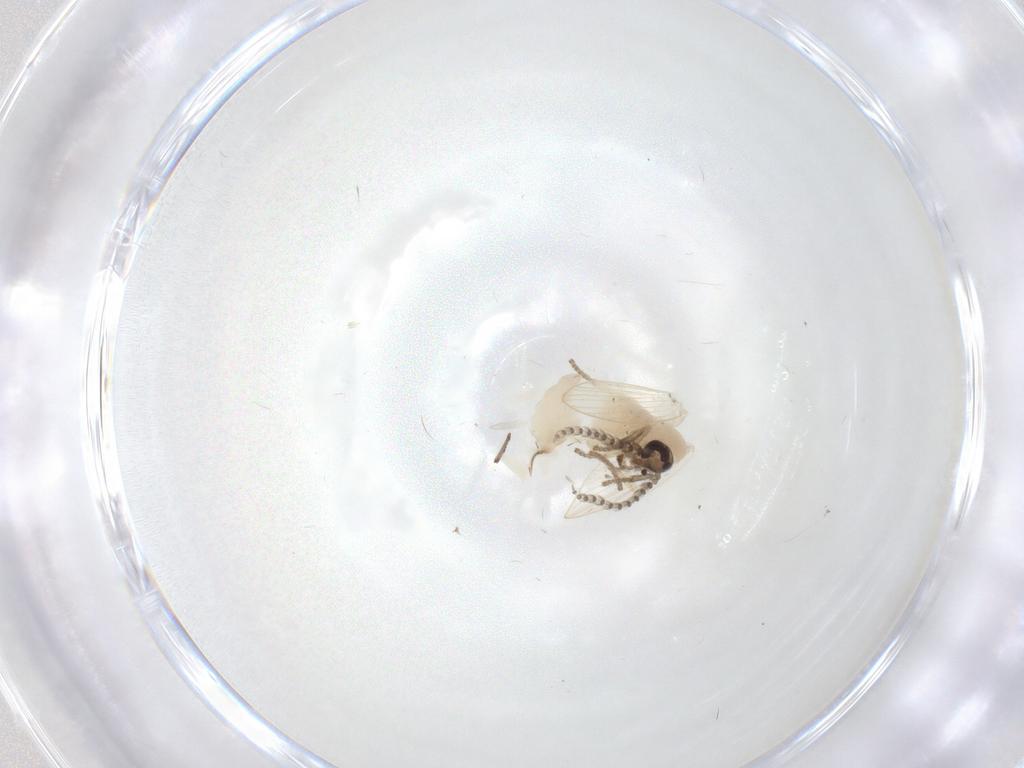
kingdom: Animalia
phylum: Arthropoda
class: Insecta
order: Diptera
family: Psychodidae
